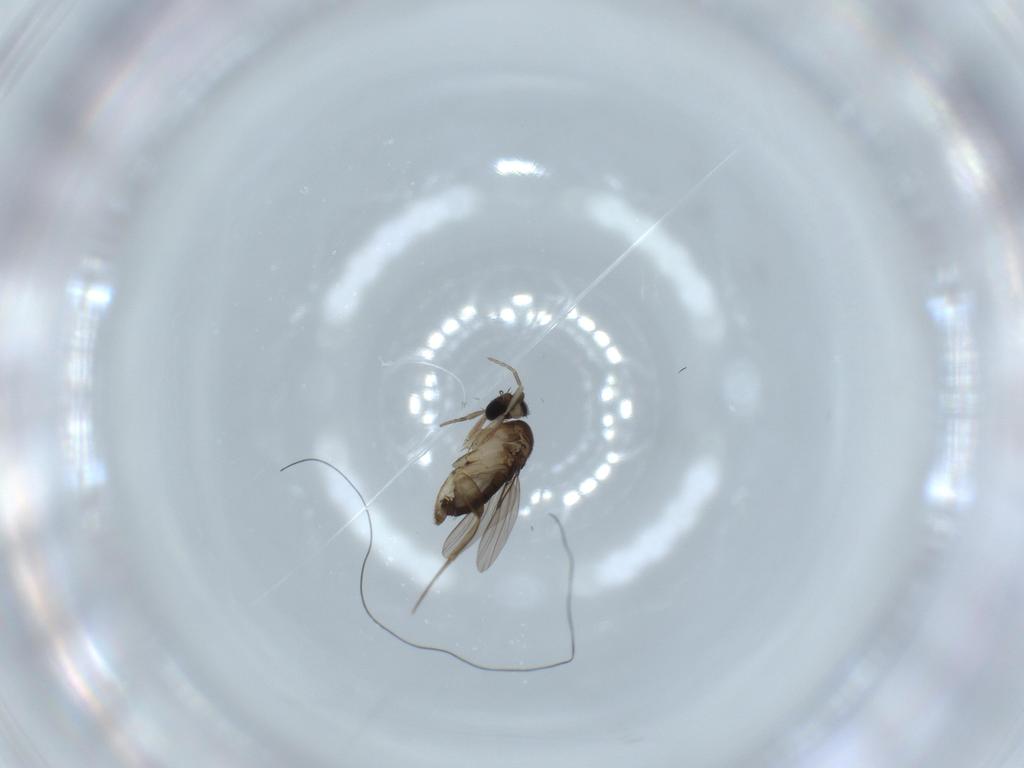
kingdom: Animalia
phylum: Arthropoda
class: Insecta
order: Diptera
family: Phoridae
